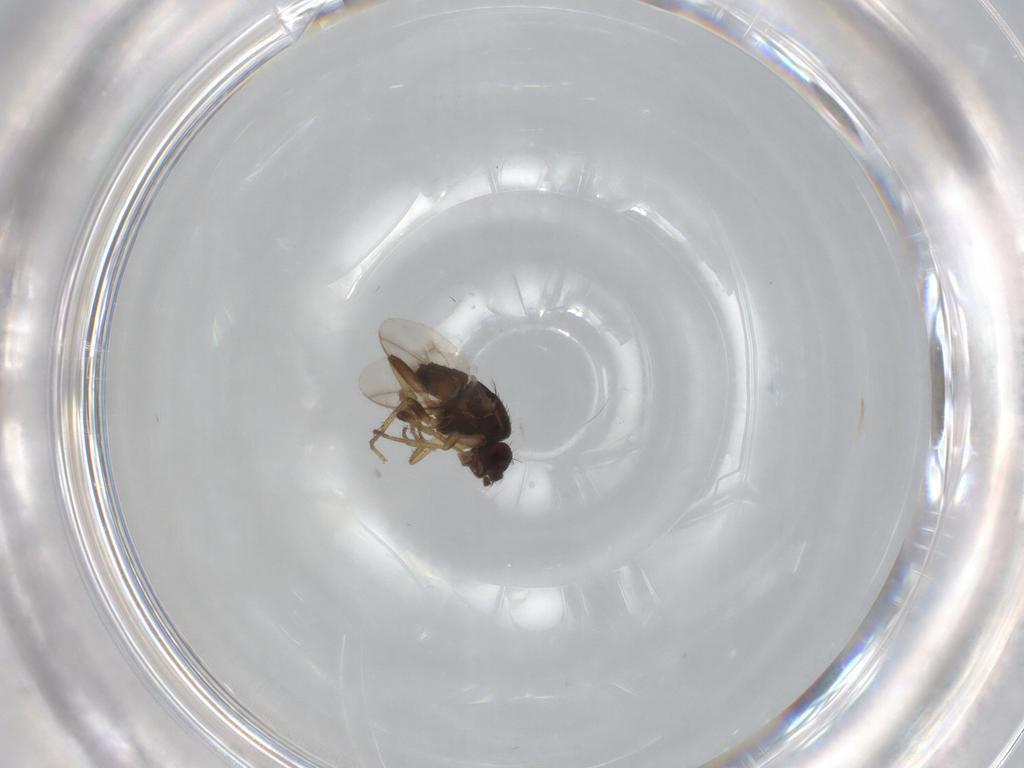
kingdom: Animalia
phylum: Arthropoda
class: Insecta
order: Diptera
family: Sphaeroceridae
